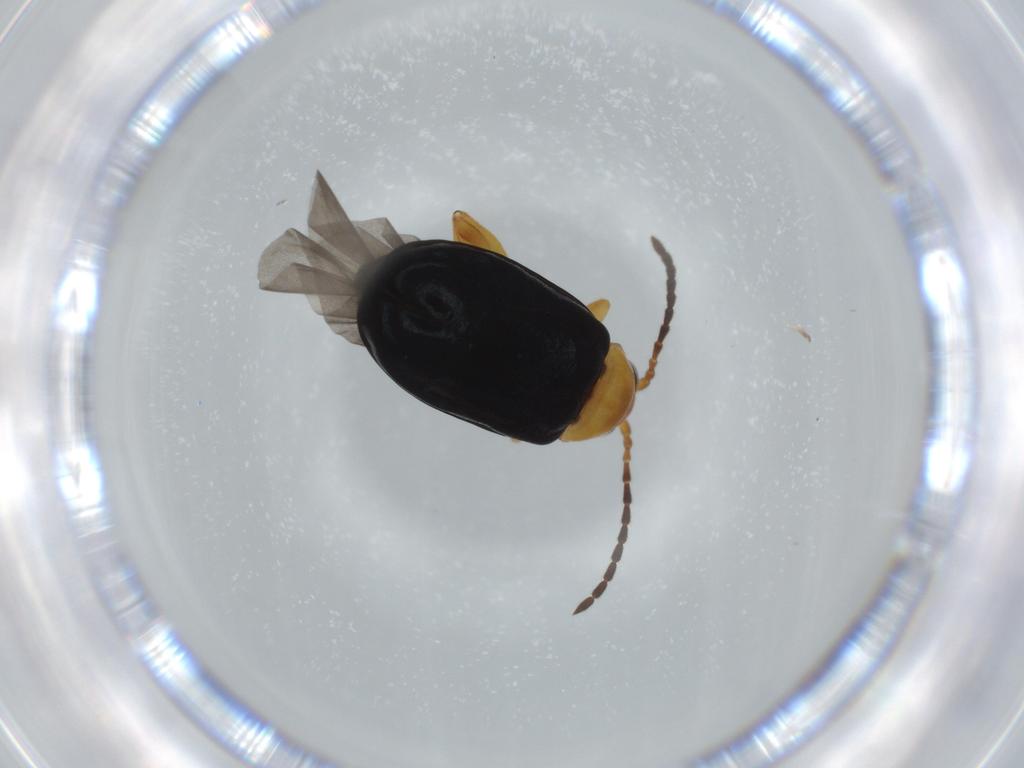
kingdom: Animalia
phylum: Arthropoda
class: Insecta
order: Coleoptera
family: Chrysomelidae
